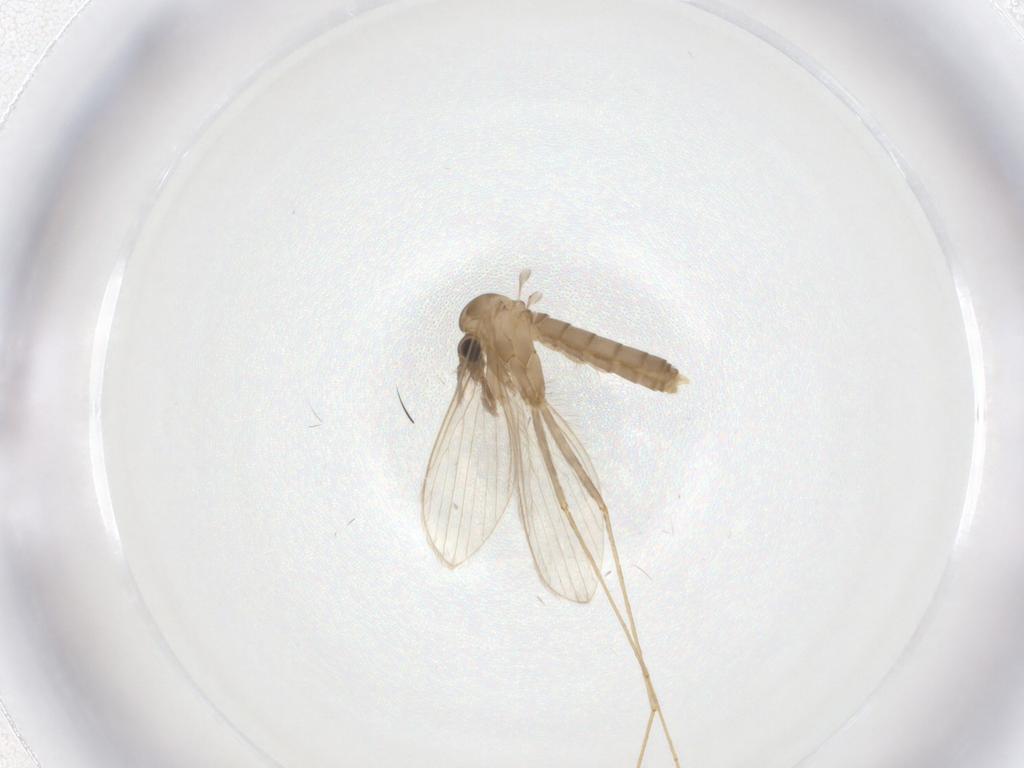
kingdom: Animalia
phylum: Arthropoda
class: Insecta
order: Diptera
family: Psychodidae
